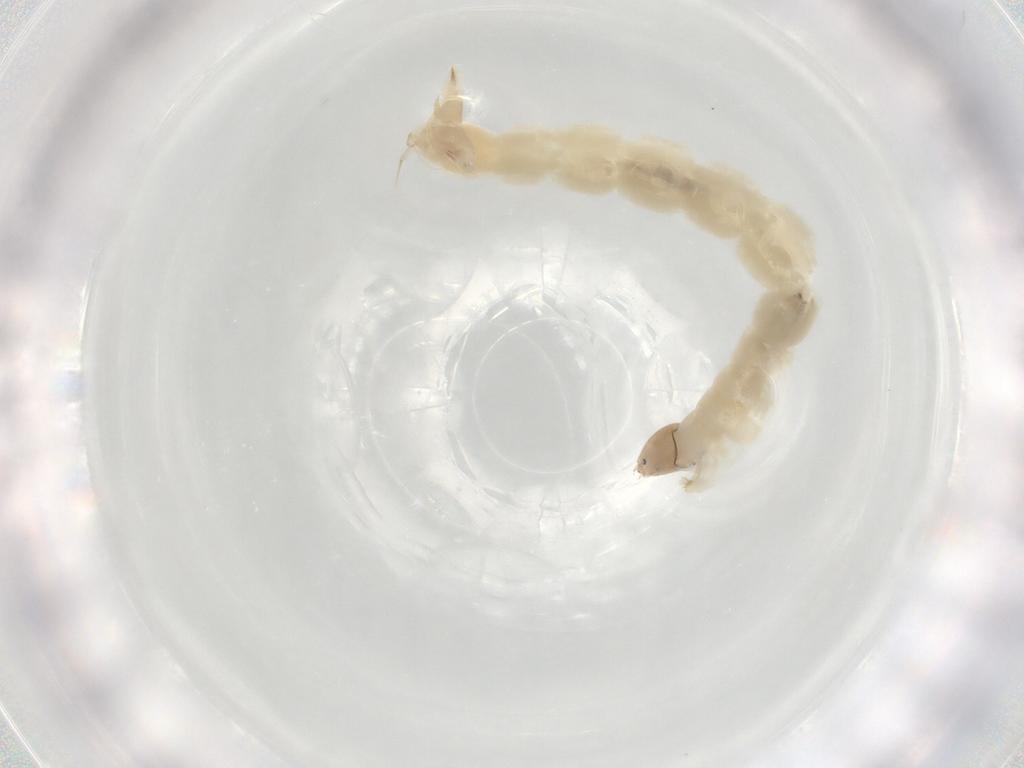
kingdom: Animalia
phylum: Arthropoda
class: Insecta
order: Diptera
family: Chironomidae
